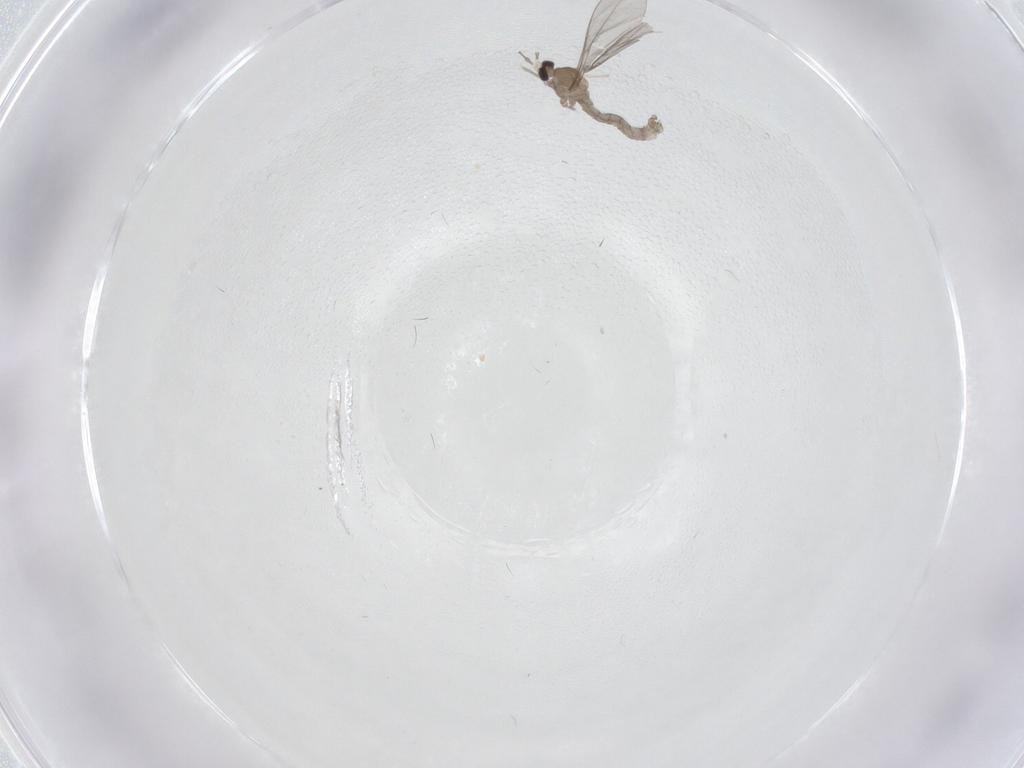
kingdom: Animalia
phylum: Arthropoda
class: Insecta
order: Diptera
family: Cecidomyiidae
